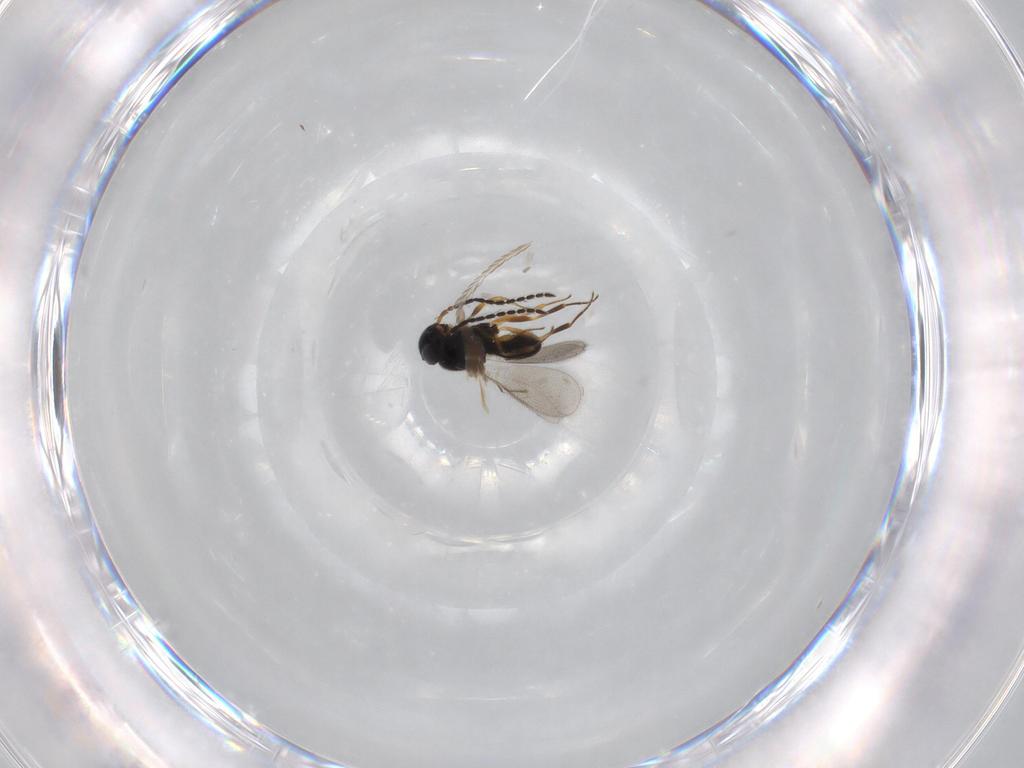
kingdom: Animalia
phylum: Arthropoda
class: Insecta
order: Hymenoptera
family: Scelionidae
